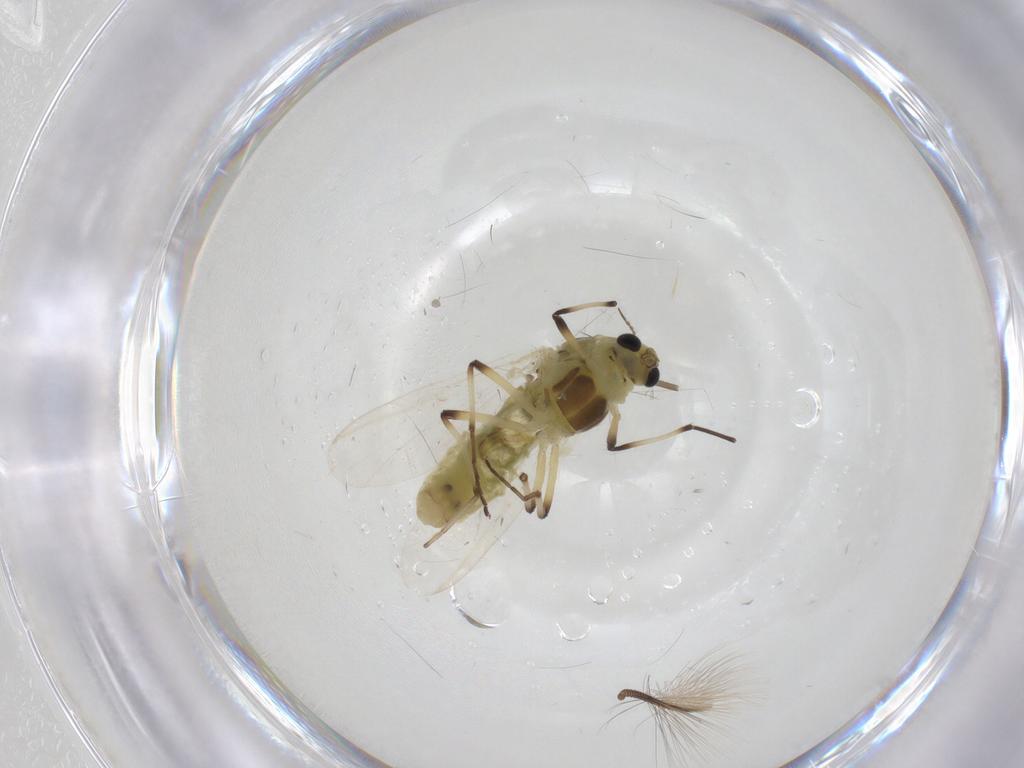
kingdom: Animalia
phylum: Arthropoda
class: Insecta
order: Diptera
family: Chironomidae
